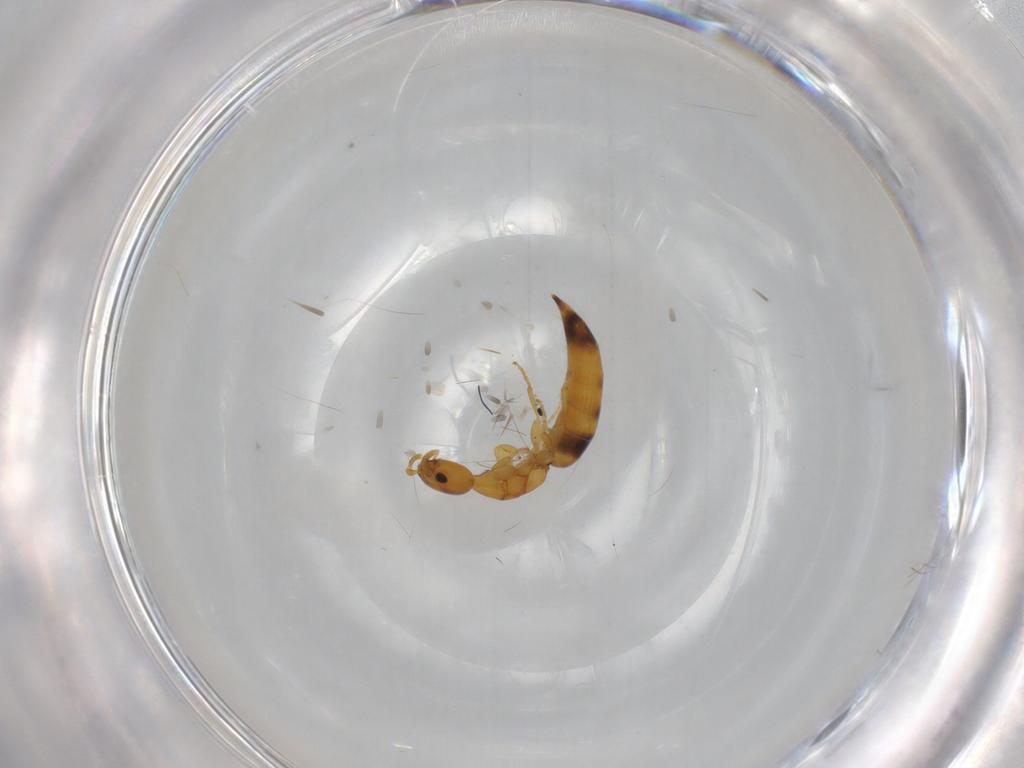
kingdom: Animalia
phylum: Arthropoda
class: Insecta
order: Hymenoptera
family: Bethylidae
